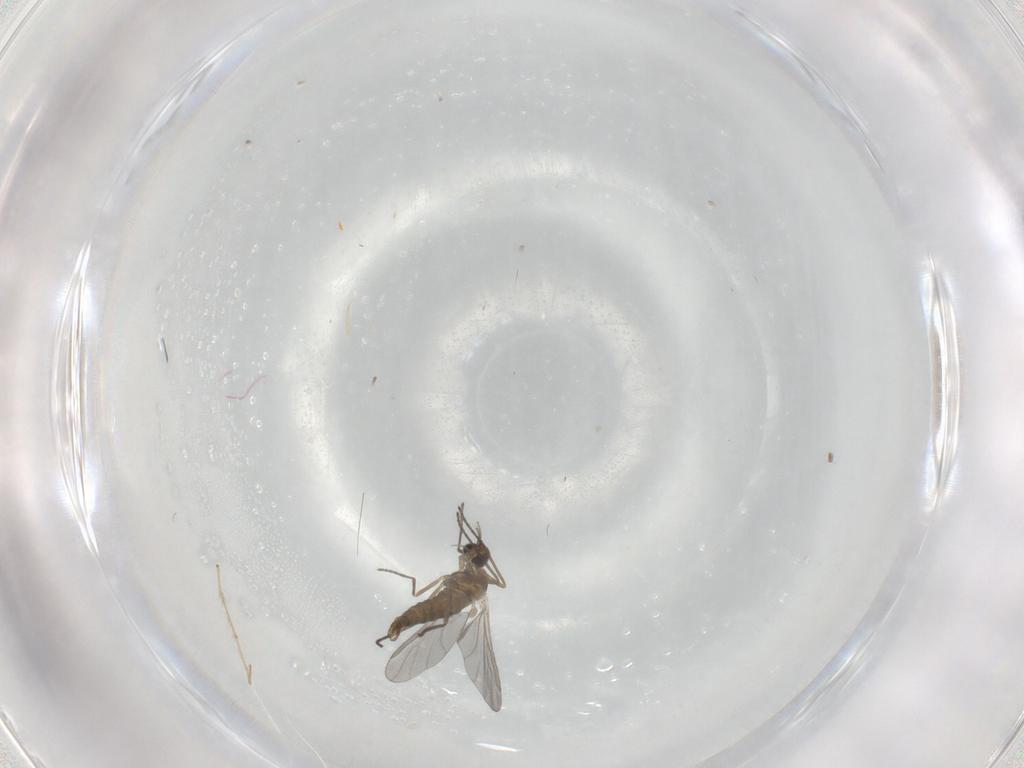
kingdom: Animalia
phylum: Arthropoda
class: Insecta
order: Diptera
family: Cecidomyiidae
